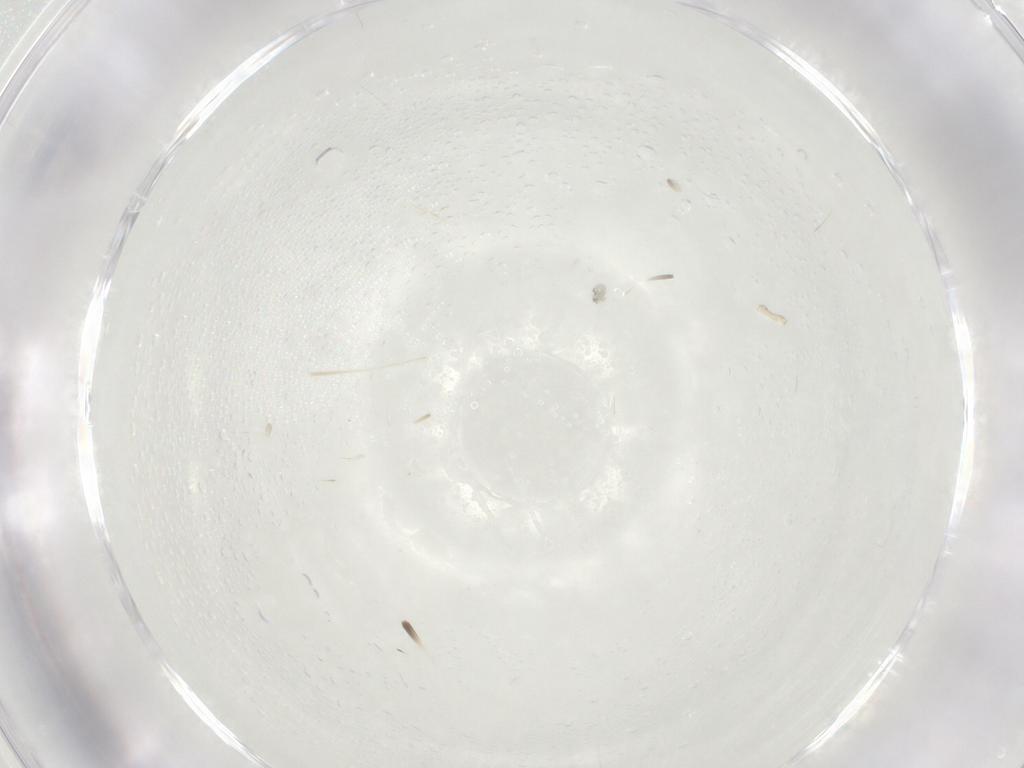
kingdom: Animalia
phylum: Arthropoda
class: Arachnida
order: Trombidiformes
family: Anystidae
